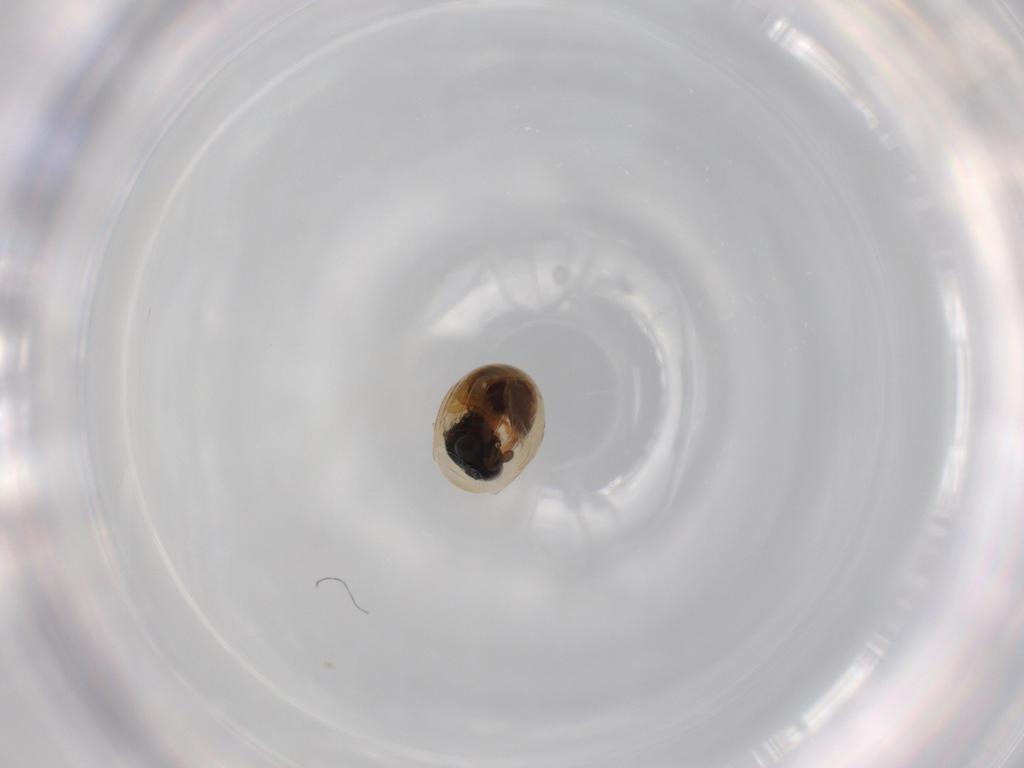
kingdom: Animalia
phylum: Arthropoda
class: Insecta
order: Hymenoptera
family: Scelionidae
